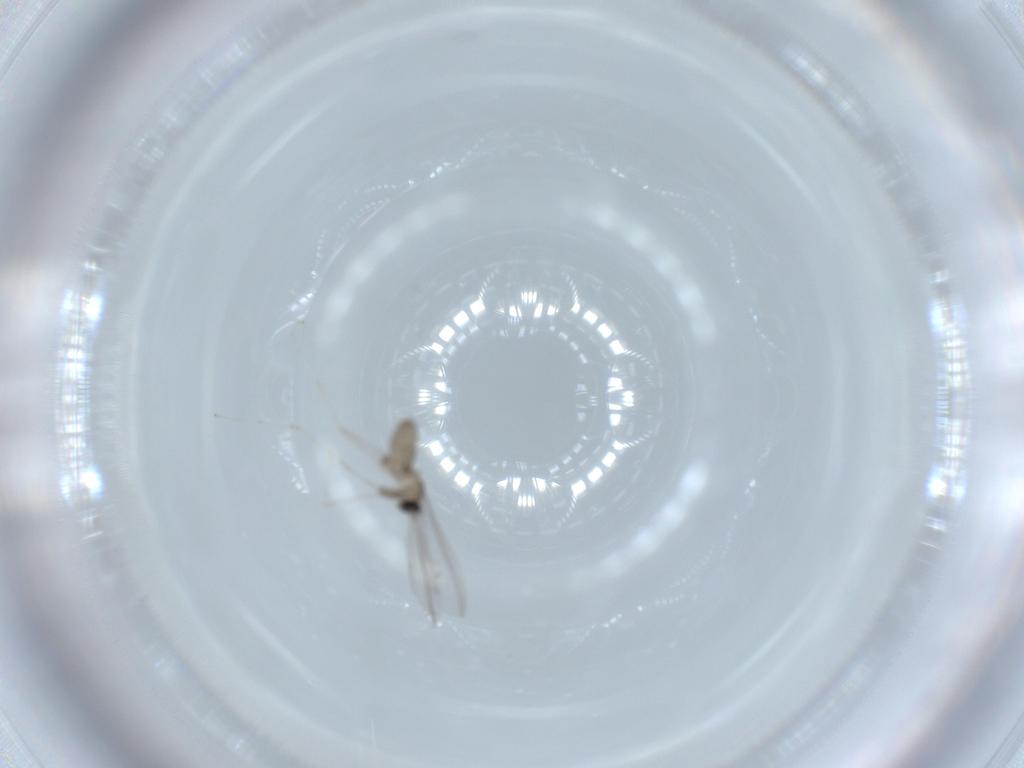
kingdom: Animalia
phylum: Arthropoda
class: Insecta
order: Diptera
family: Chironomidae
